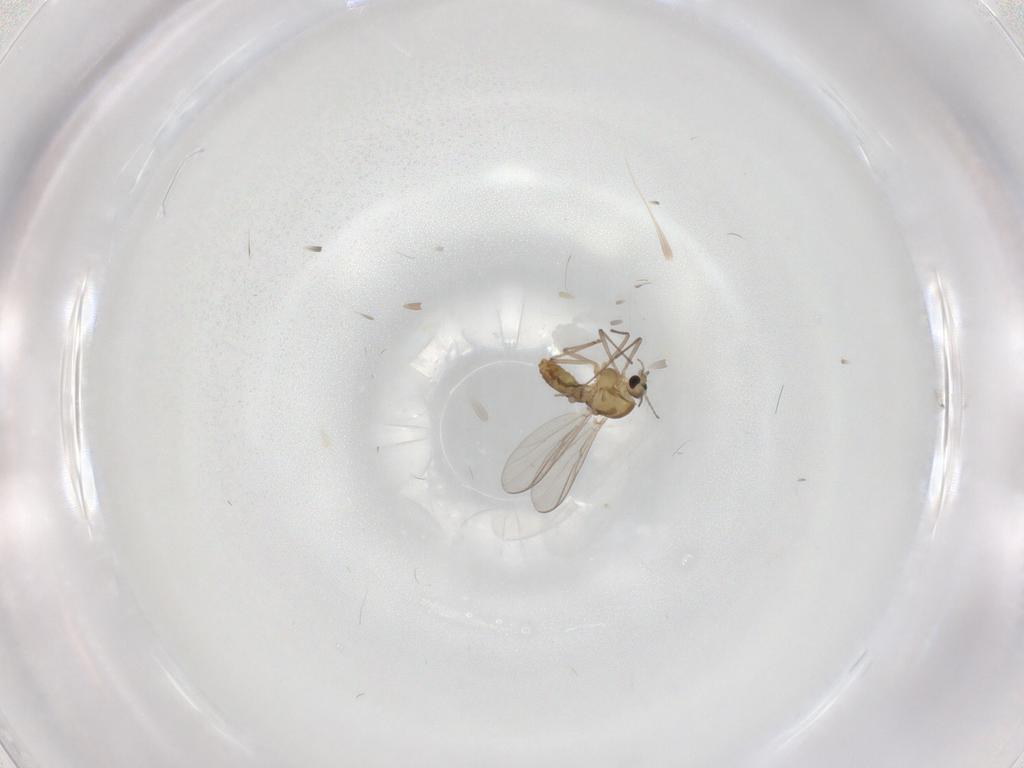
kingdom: Animalia
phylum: Arthropoda
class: Insecta
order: Diptera
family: Chironomidae
